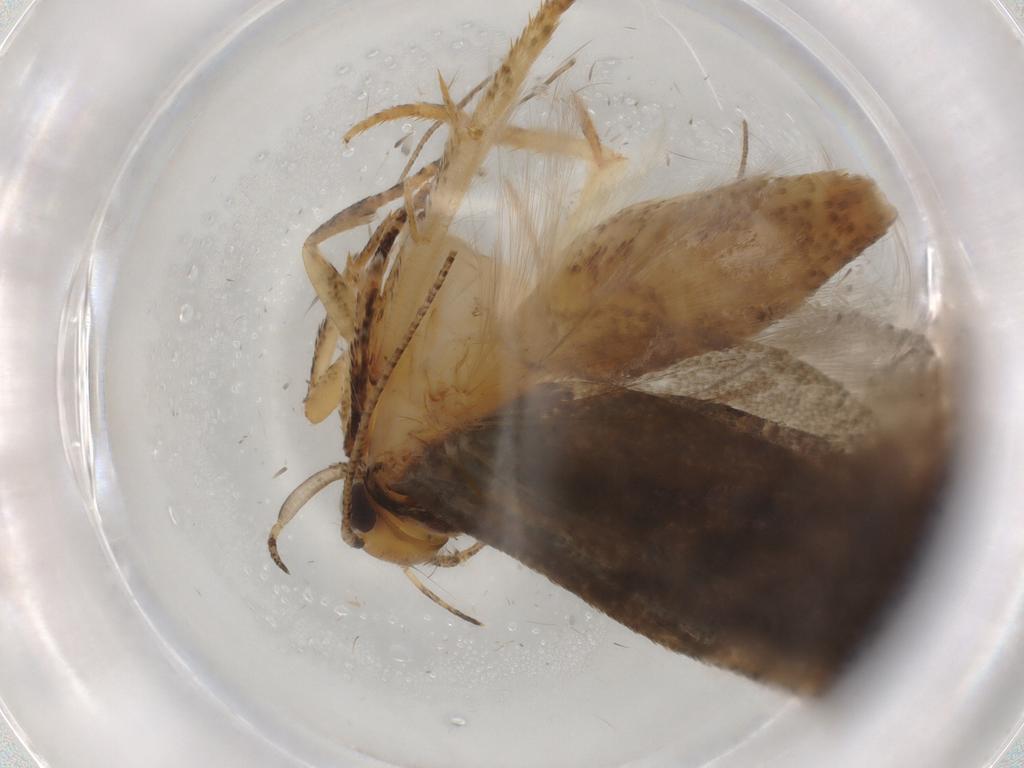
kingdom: Animalia
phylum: Arthropoda
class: Insecta
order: Lepidoptera
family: Gelechiidae
